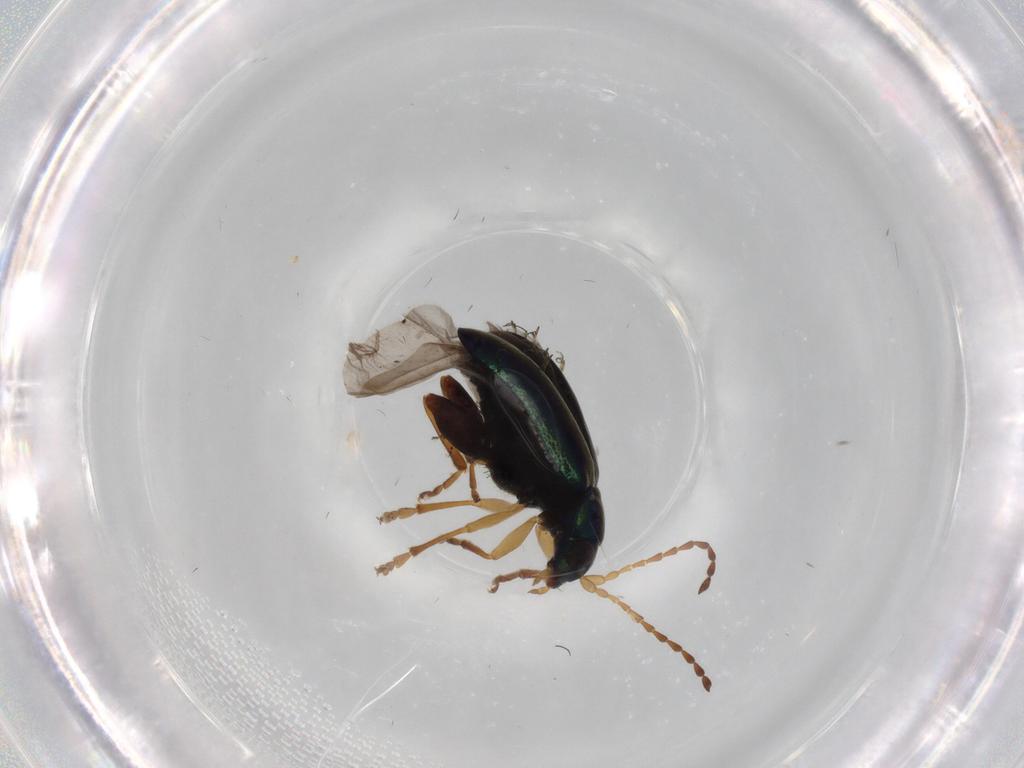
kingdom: Animalia
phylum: Arthropoda
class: Insecta
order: Coleoptera
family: Chrysomelidae
